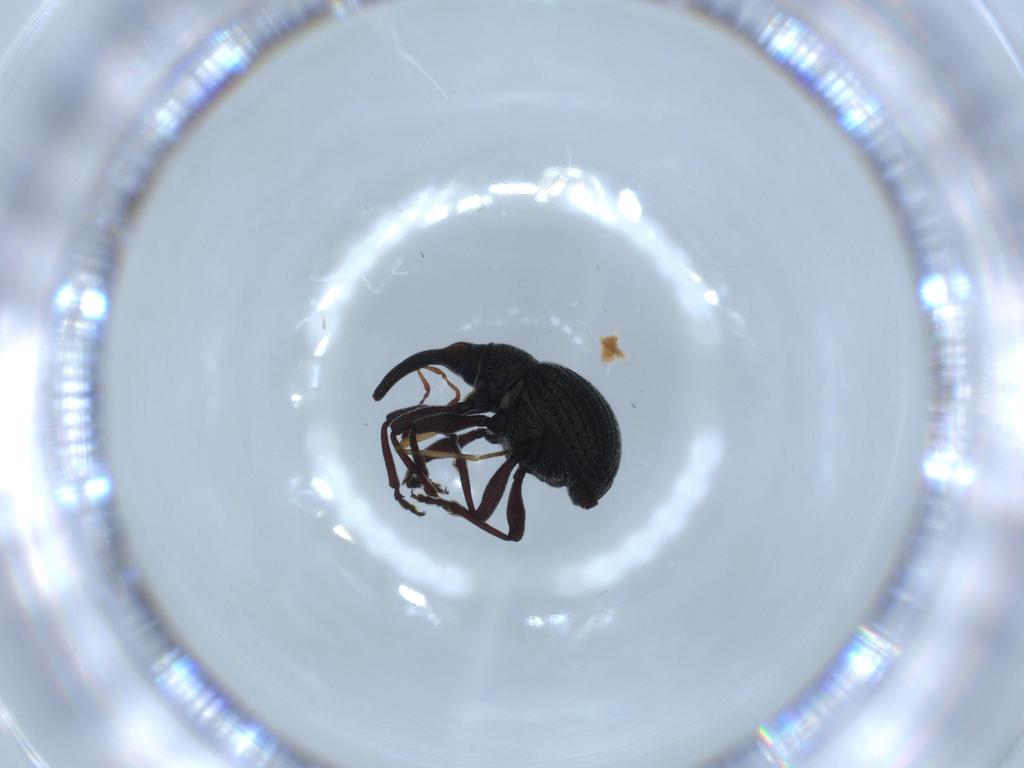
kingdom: Animalia
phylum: Arthropoda
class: Insecta
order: Coleoptera
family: Brentidae
